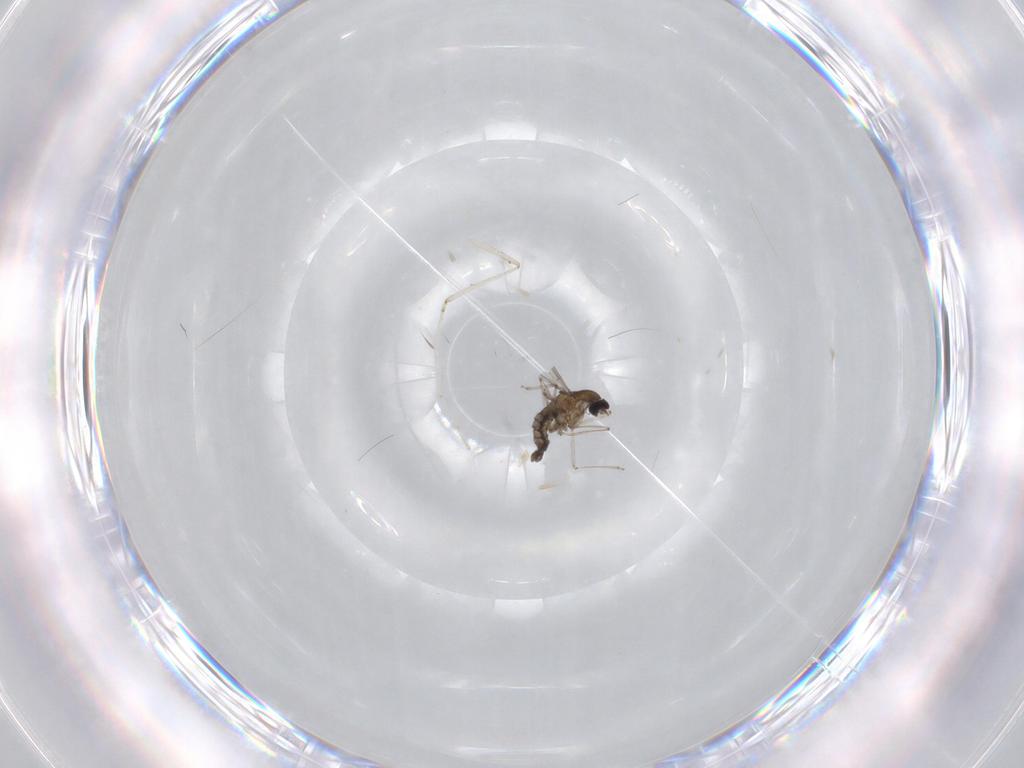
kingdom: Animalia
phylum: Arthropoda
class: Insecta
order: Diptera
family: Cecidomyiidae
